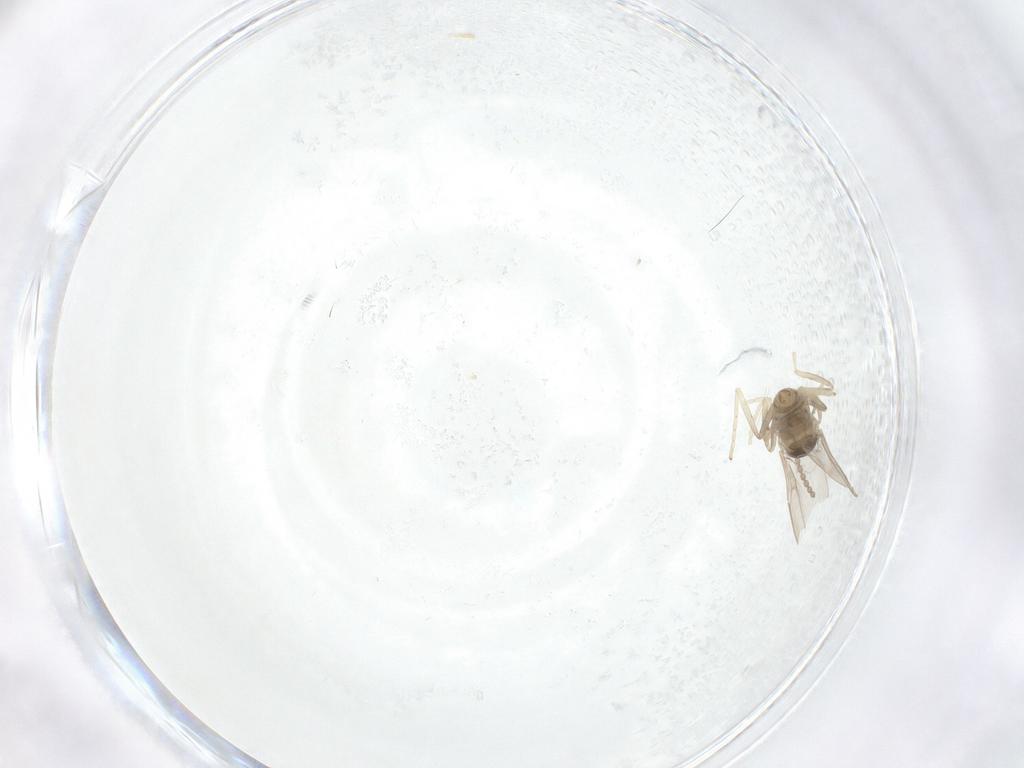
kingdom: Animalia
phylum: Arthropoda
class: Insecta
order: Diptera
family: Cecidomyiidae
